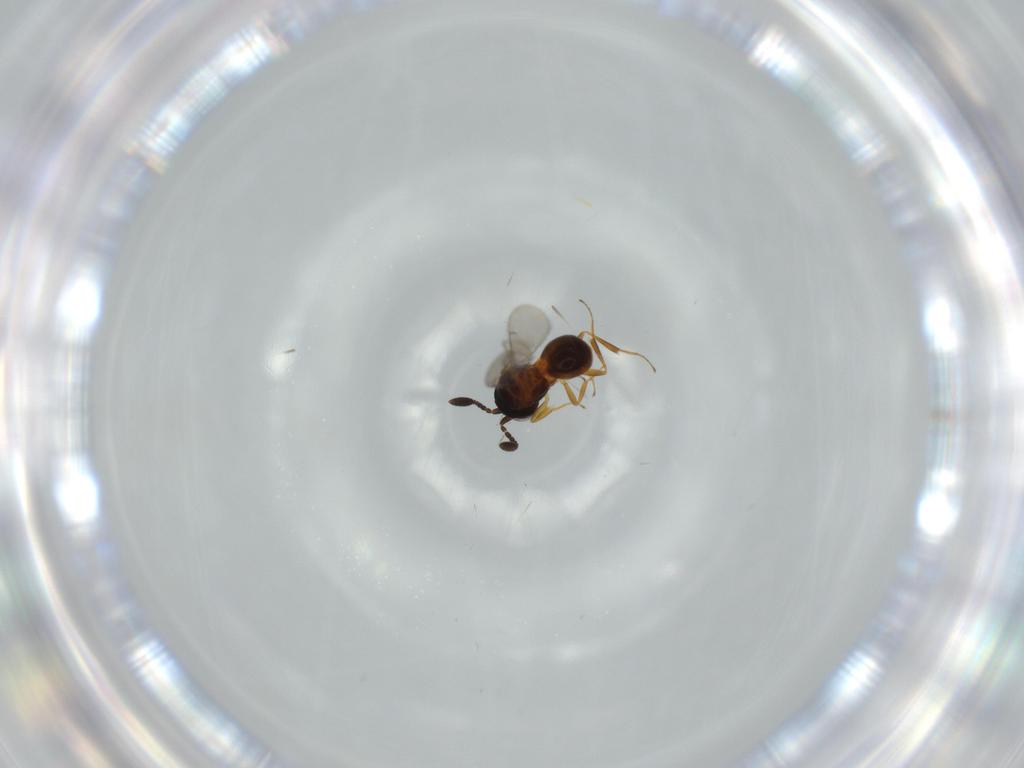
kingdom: Animalia
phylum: Arthropoda
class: Insecta
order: Hymenoptera
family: Scelionidae
